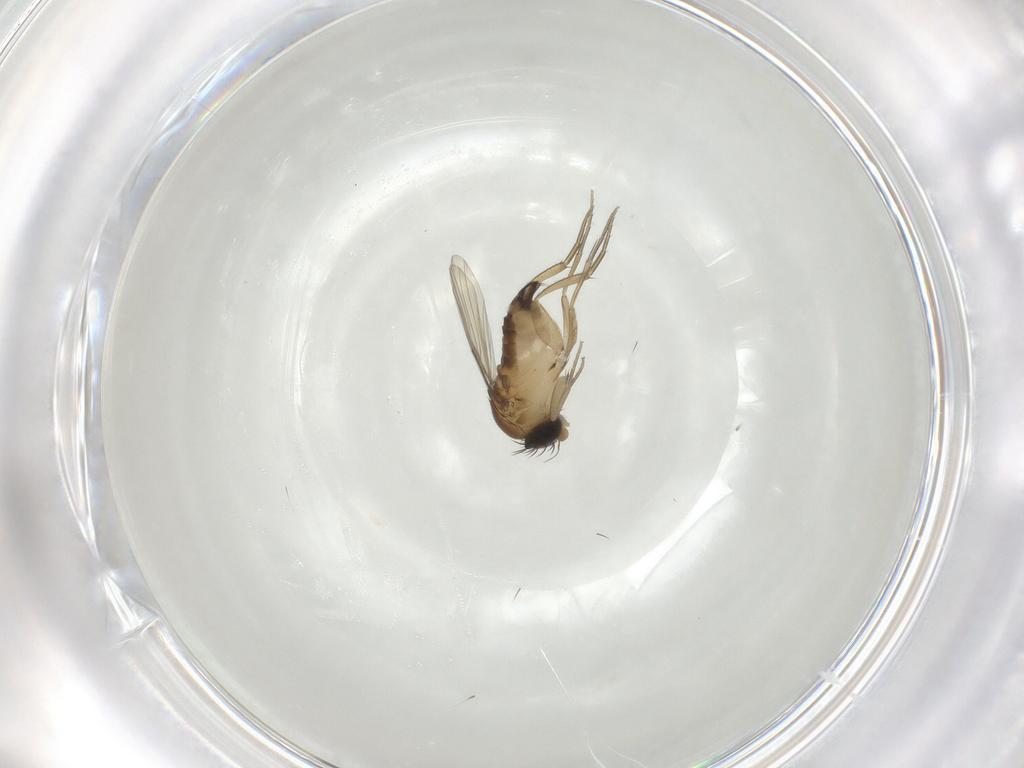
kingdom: Animalia
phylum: Arthropoda
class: Insecta
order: Diptera
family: Phoridae
